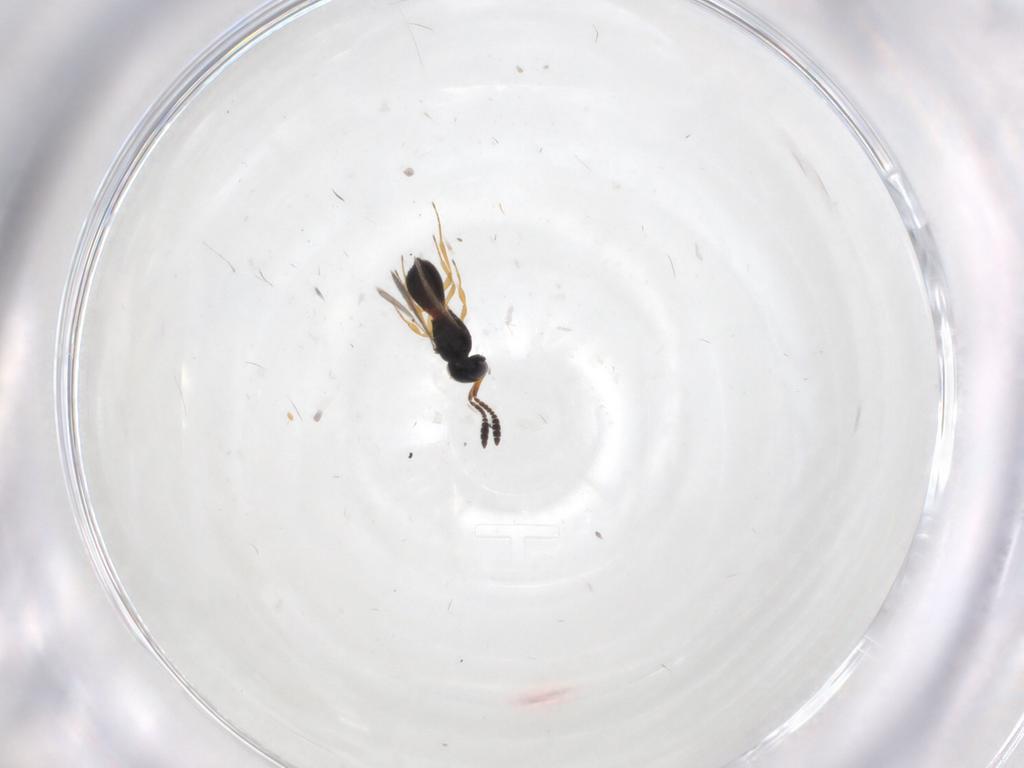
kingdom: Animalia
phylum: Arthropoda
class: Insecta
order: Hymenoptera
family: Scelionidae
